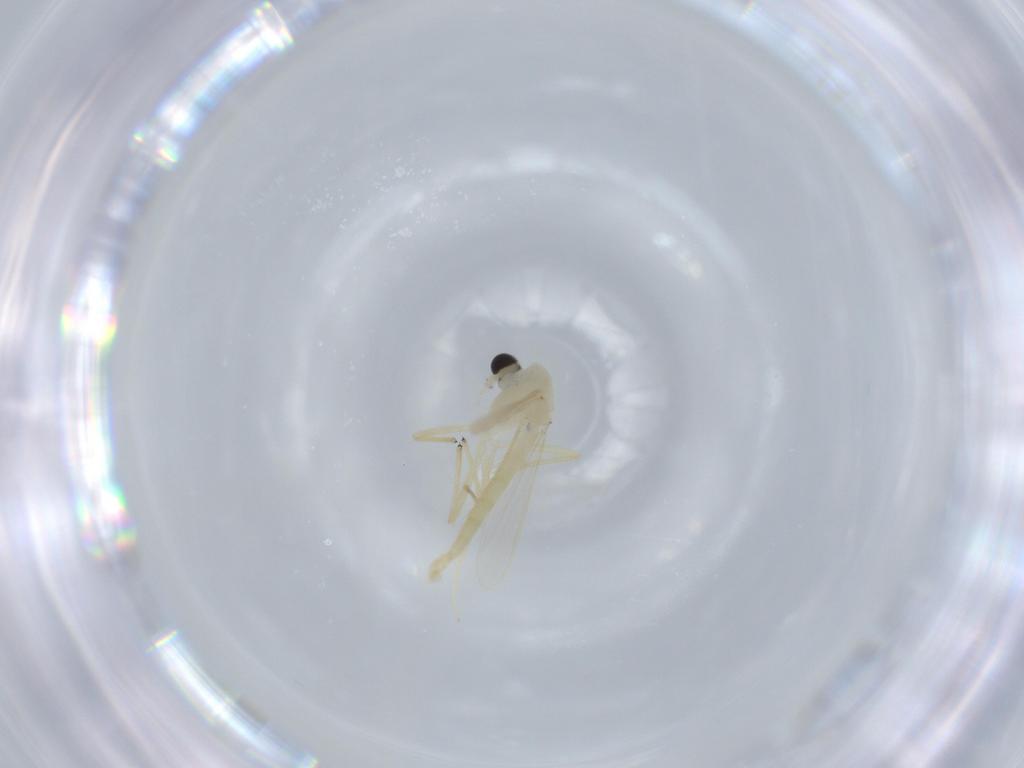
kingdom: Animalia
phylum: Arthropoda
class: Insecta
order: Diptera
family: Chironomidae
